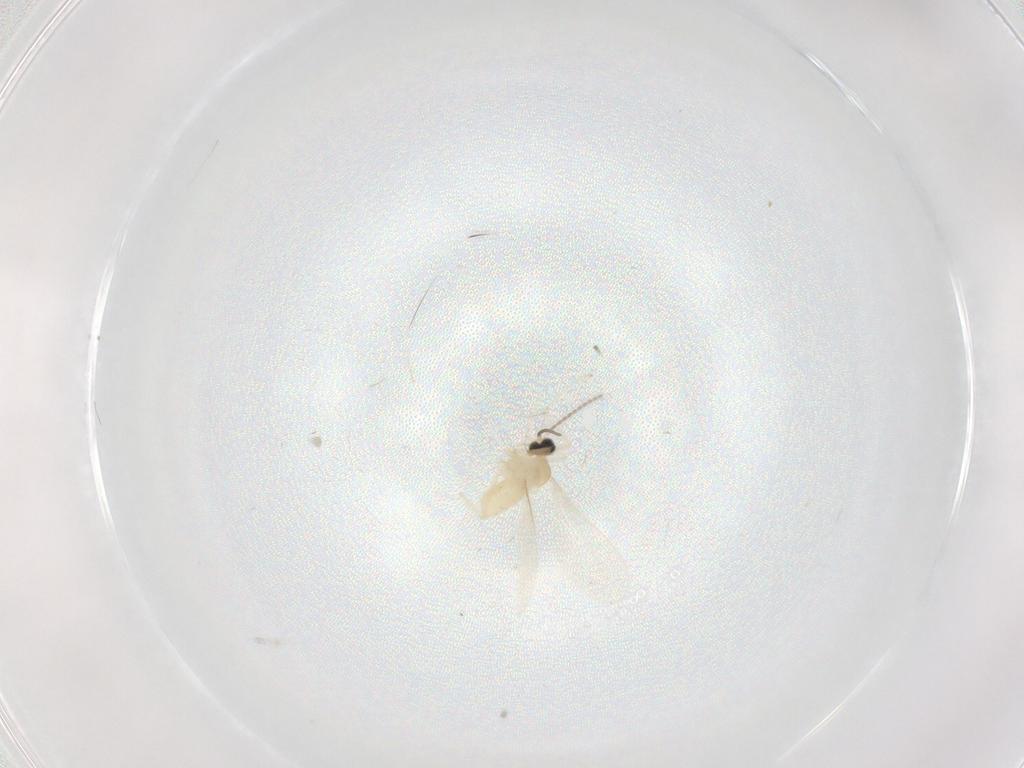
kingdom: Animalia
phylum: Arthropoda
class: Insecta
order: Diptera
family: Cecidomyiidae
